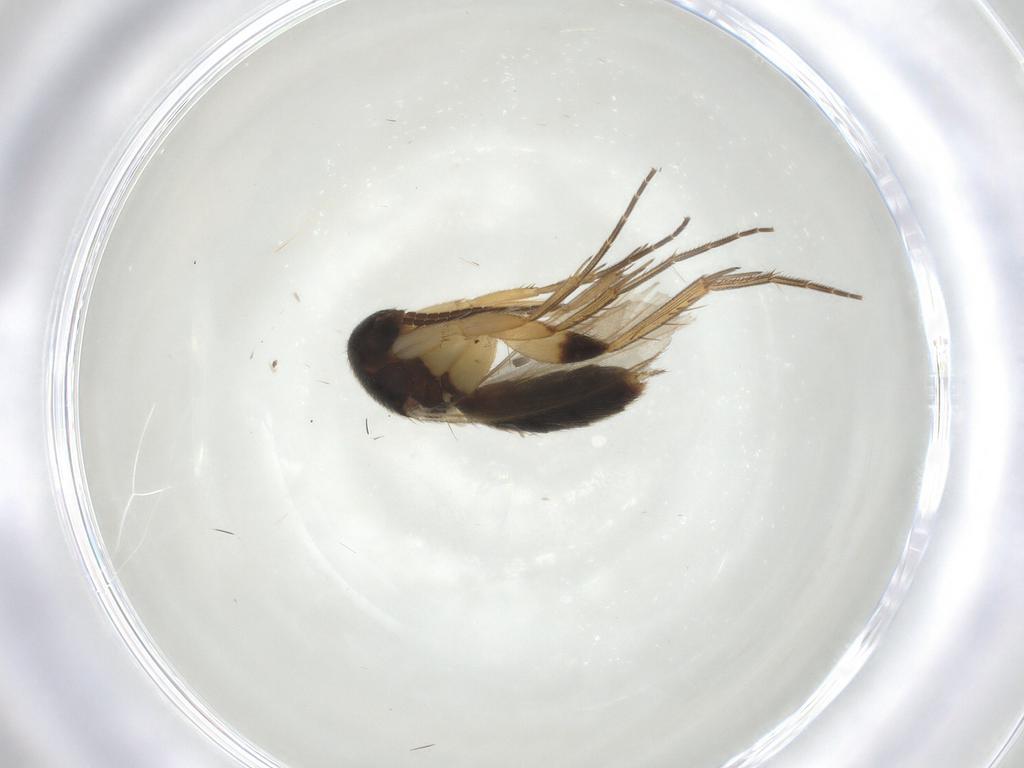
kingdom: Animalia
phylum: Arthropoda
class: Insecta
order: Diptera
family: Mycetophilidae
